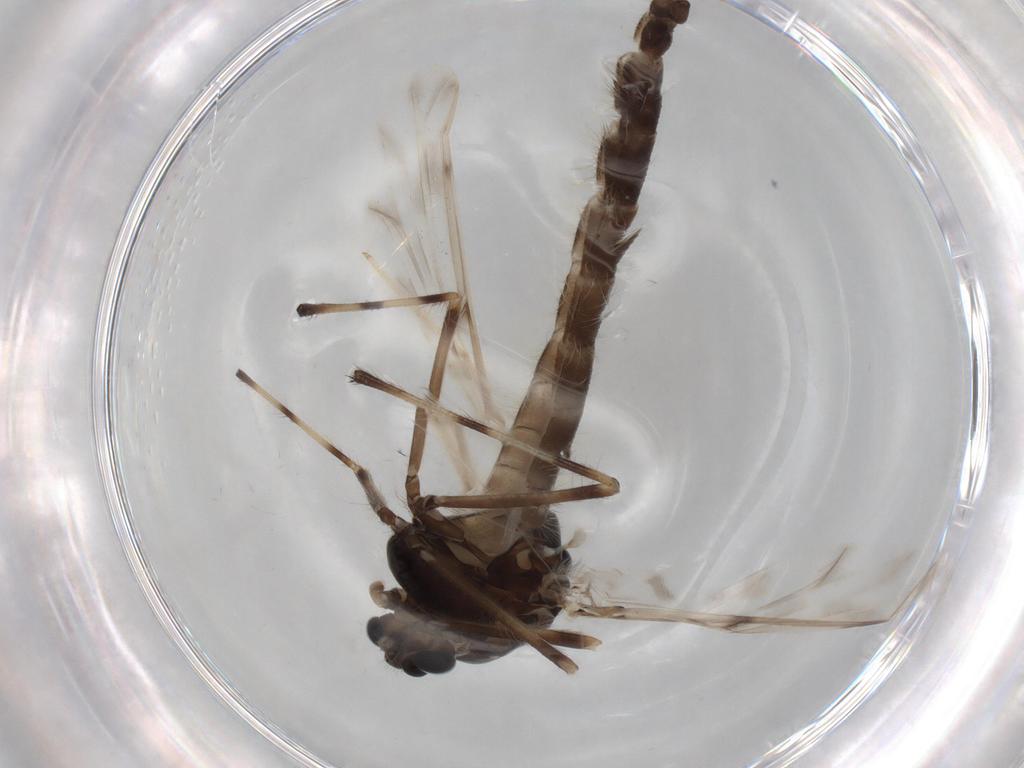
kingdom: Animalia
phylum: Arthropoda
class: Insecta
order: Diptera
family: Chironomidae
